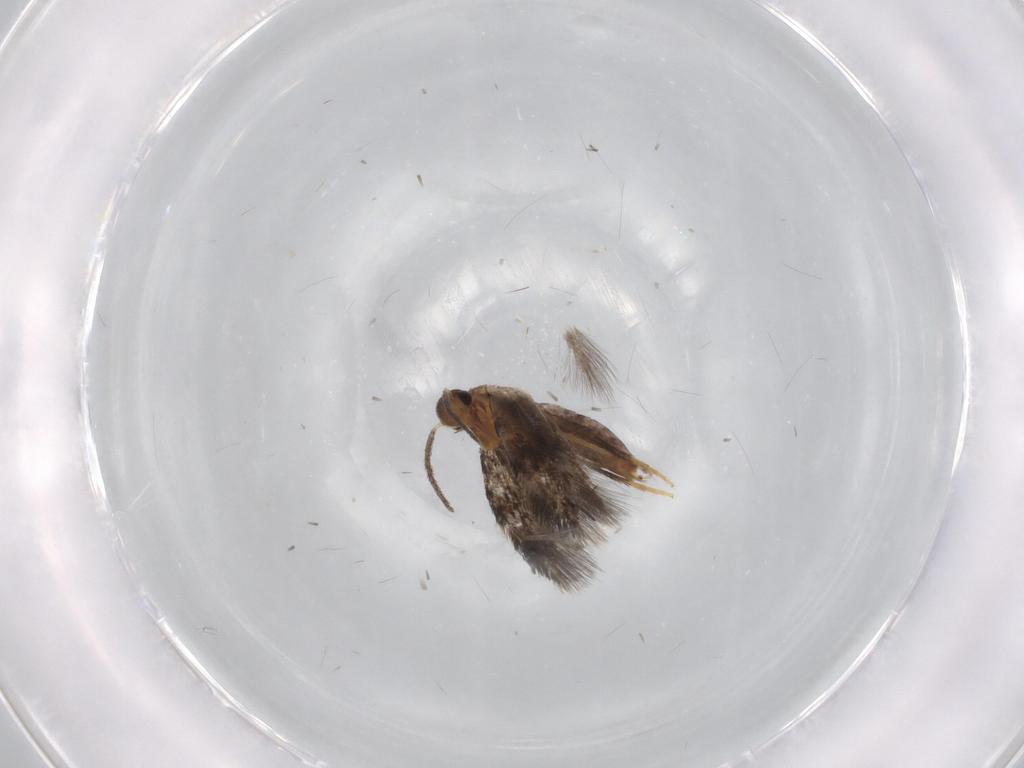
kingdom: Animalia
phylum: Arthropoda
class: Insecta
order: Lepidoptera
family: Heliozelidae
